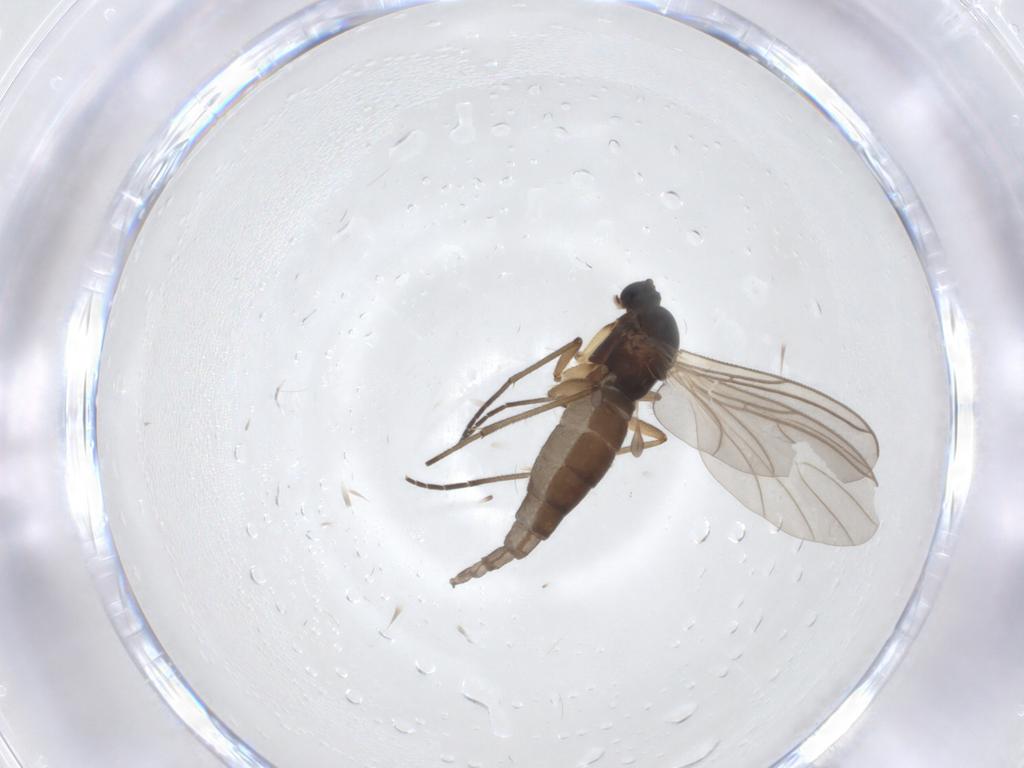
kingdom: Animalia
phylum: Arthropoda
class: Insecta
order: Diptera
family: Sciaridae
